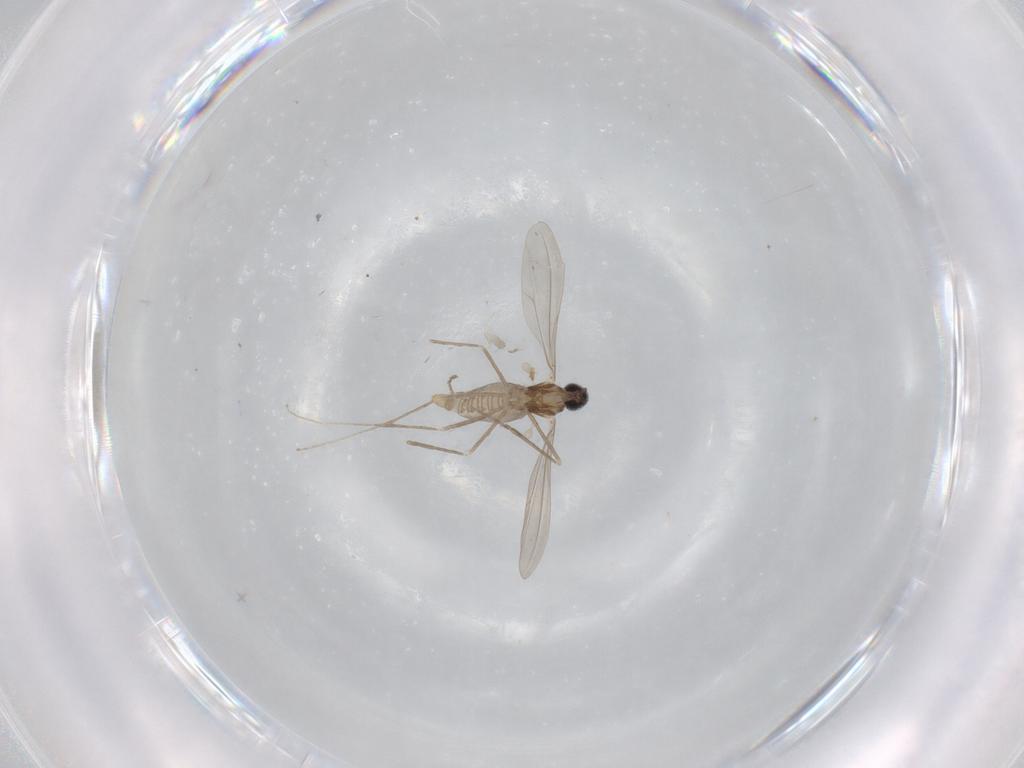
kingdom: Animalia
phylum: Arthropoda
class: Insecta
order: Diptera
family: Cecidomyiidae
